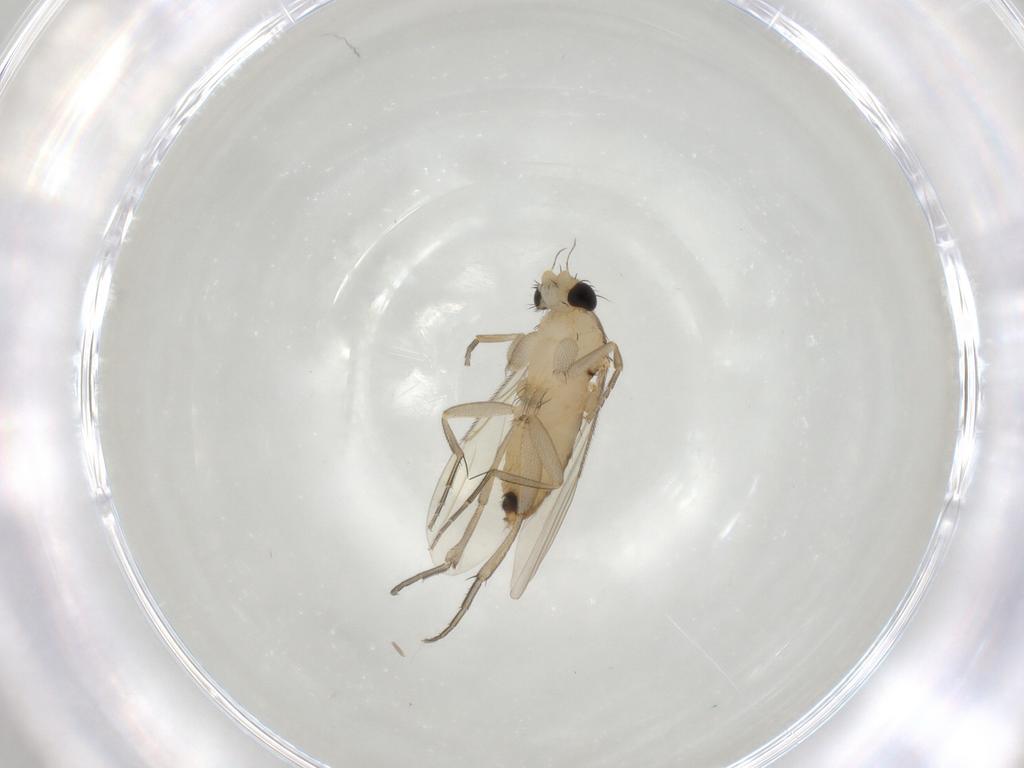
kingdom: Animalia
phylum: Arthropoda
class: Insecta
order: Diptera
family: Phoridae
